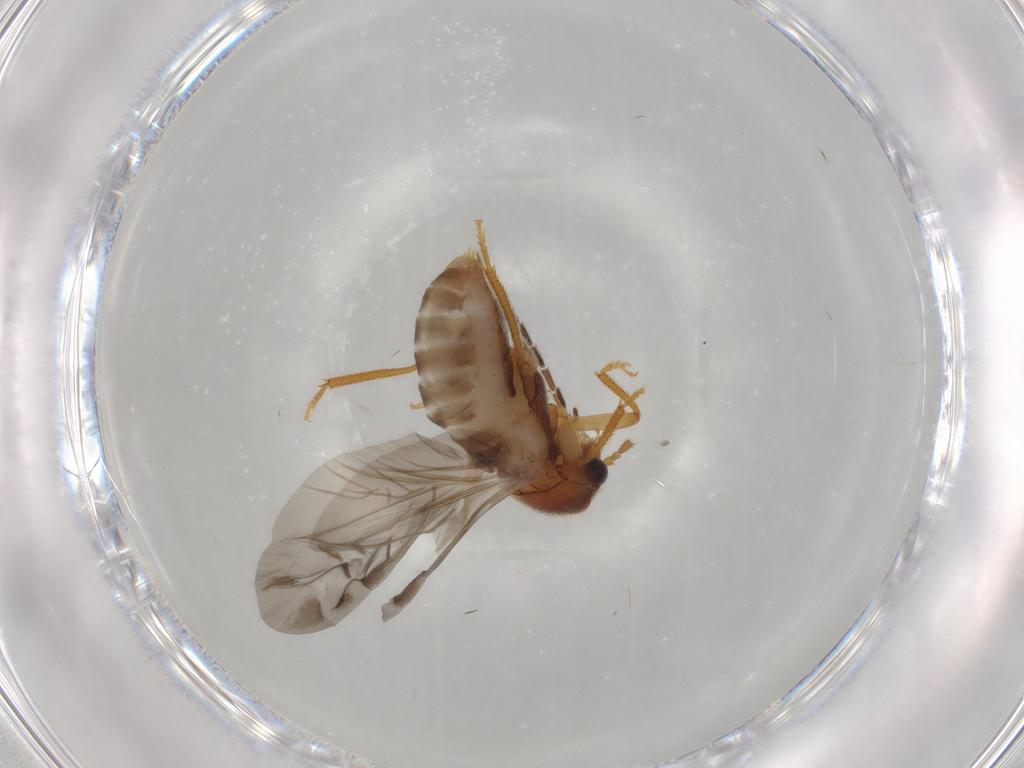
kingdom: Animalia
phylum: Arthropoda
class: Insecta
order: Coleoptera
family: Ptilodactylidae
